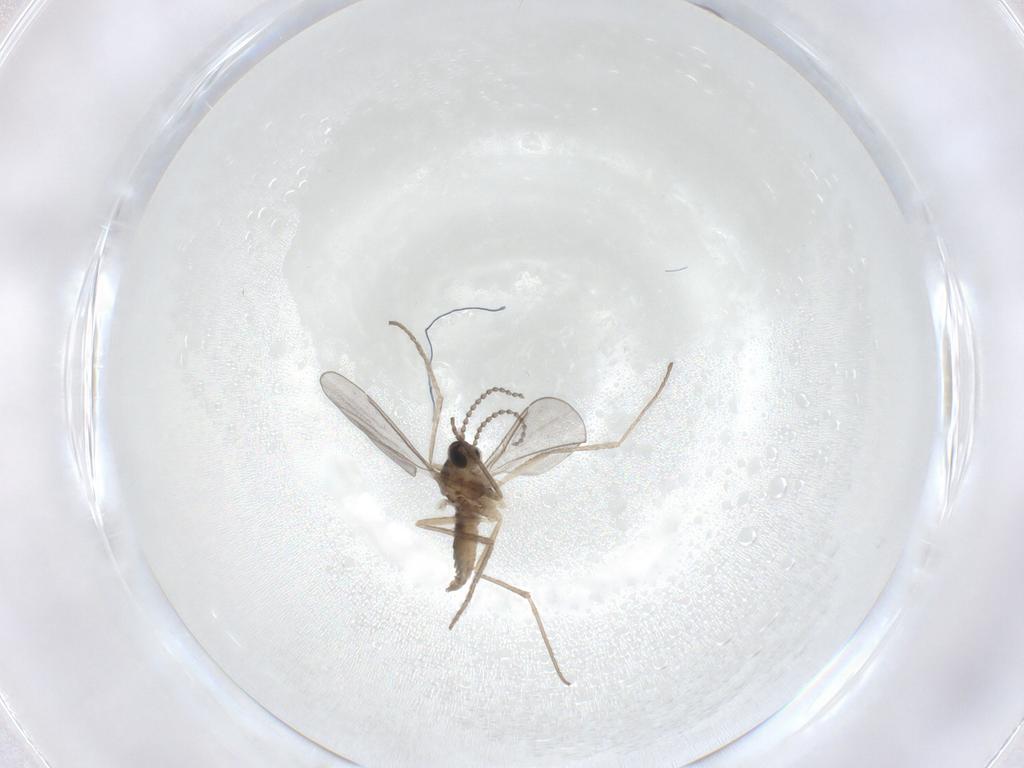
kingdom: Animalia
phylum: Arthropoda
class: Insecta
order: Diptera
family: Cecidomyiidae
